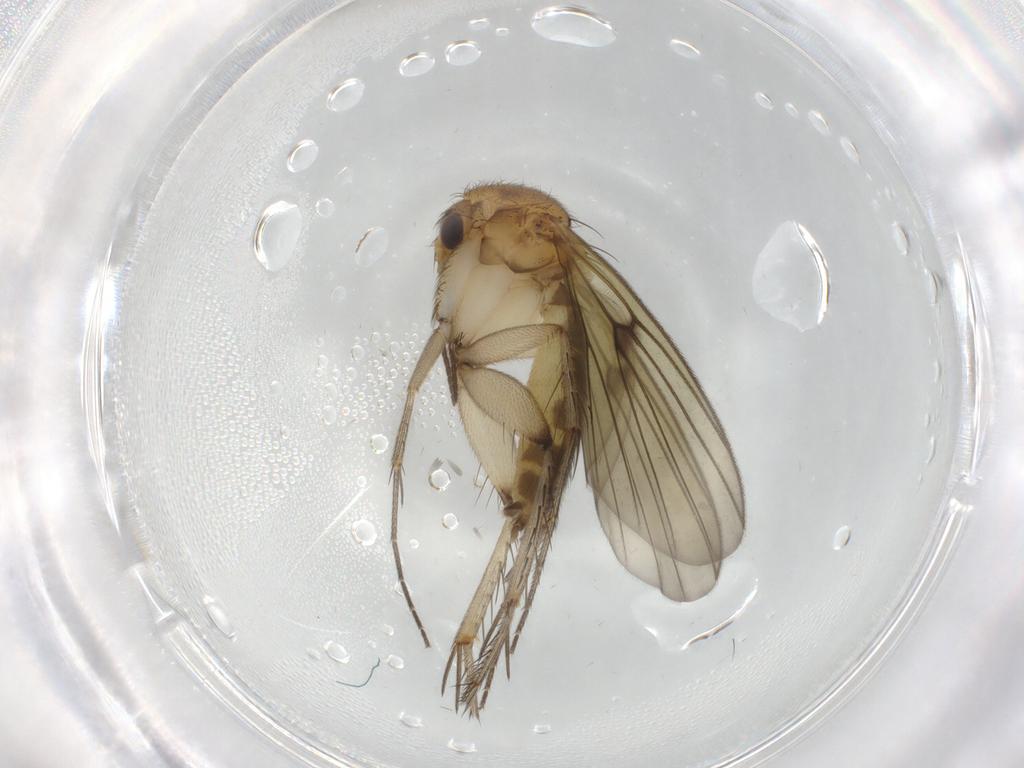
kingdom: Animalia
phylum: Arthropoda
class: Insecta
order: Diptera
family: Mycetophilidae
